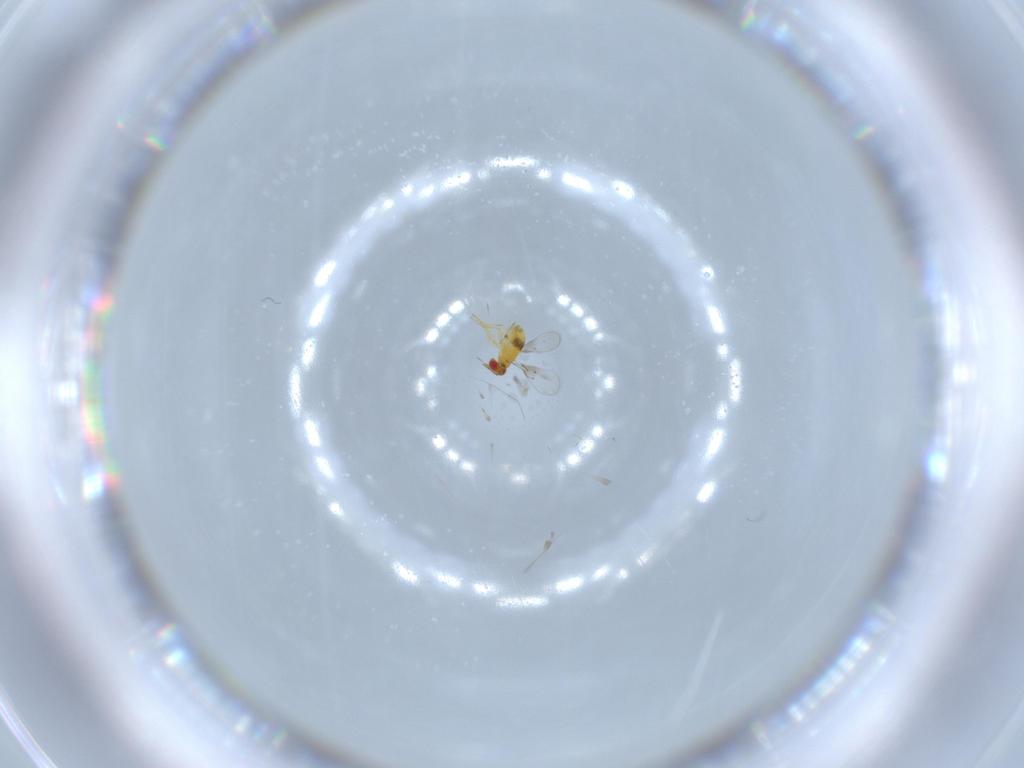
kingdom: Animalia
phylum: Arthropoda
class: Insecta
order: Hymenoptera
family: Trichogrammatidae
